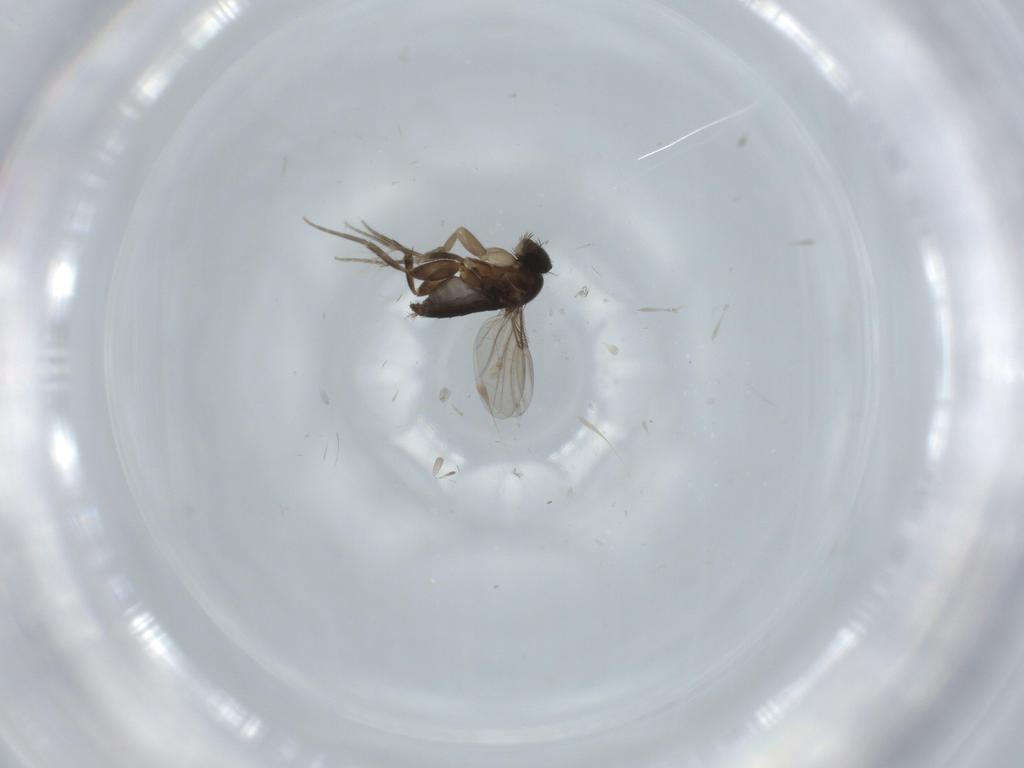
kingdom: Animalia
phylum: Arthropoda
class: Insecta
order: Diptera
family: Phoridae
